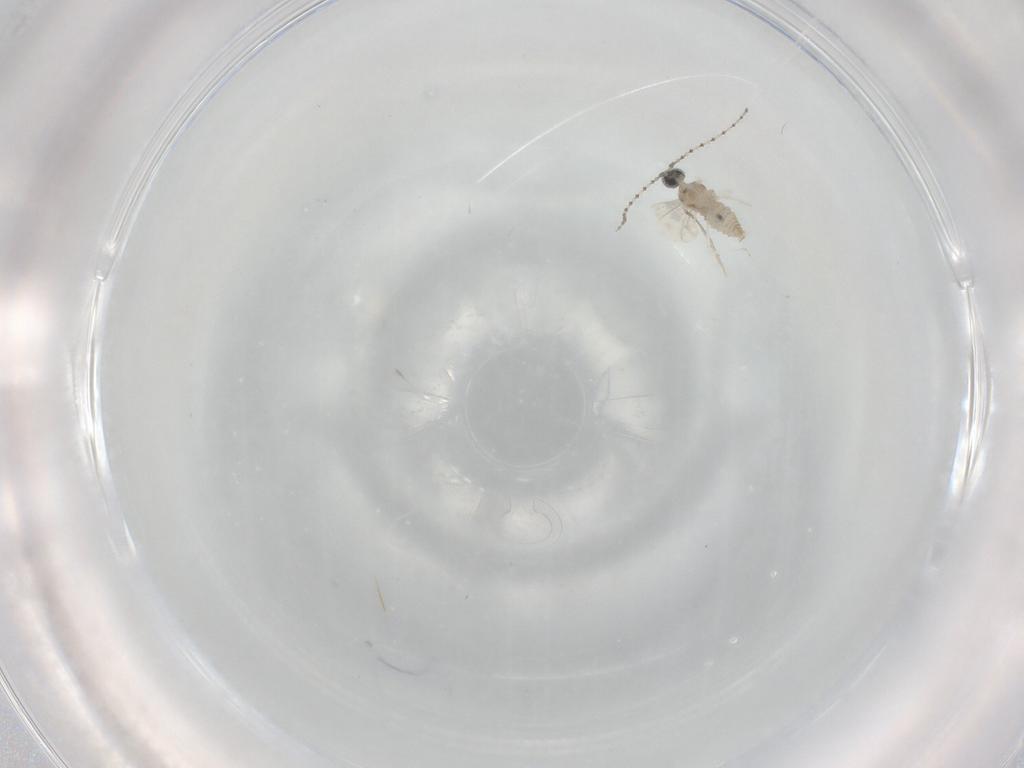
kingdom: Animalia
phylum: Arthropoda
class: Insecta
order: Diptera
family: Cecidomyiidae
